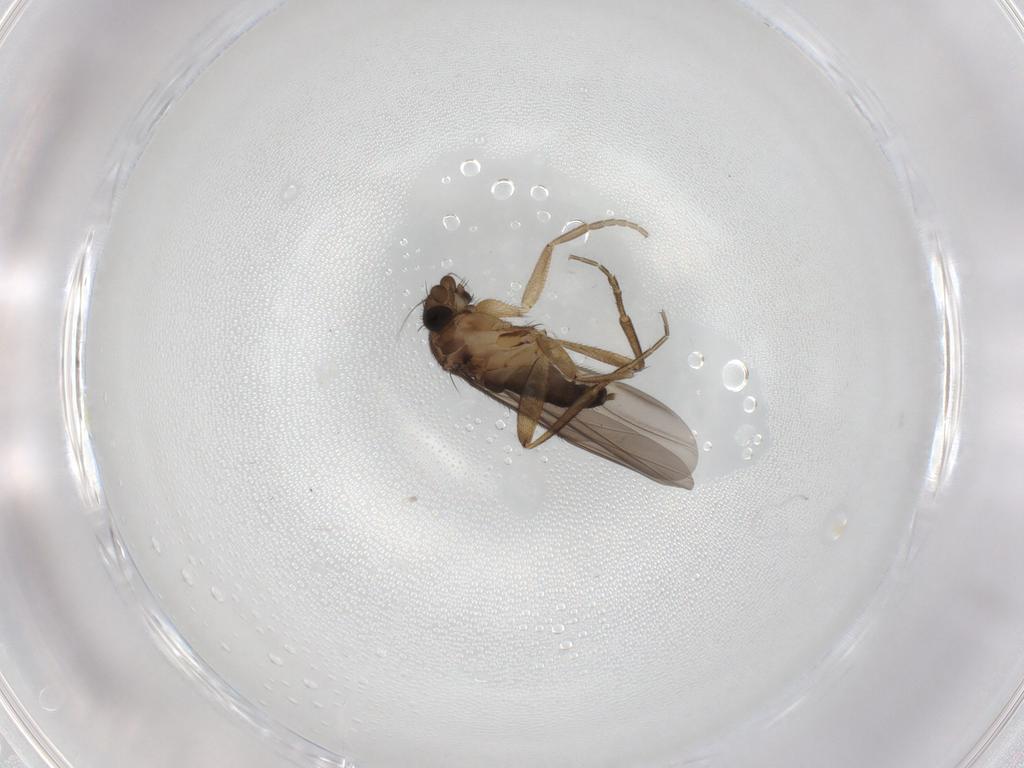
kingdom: Animalia
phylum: Arthropoda
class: Insecta
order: Diptera
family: Phoridae
